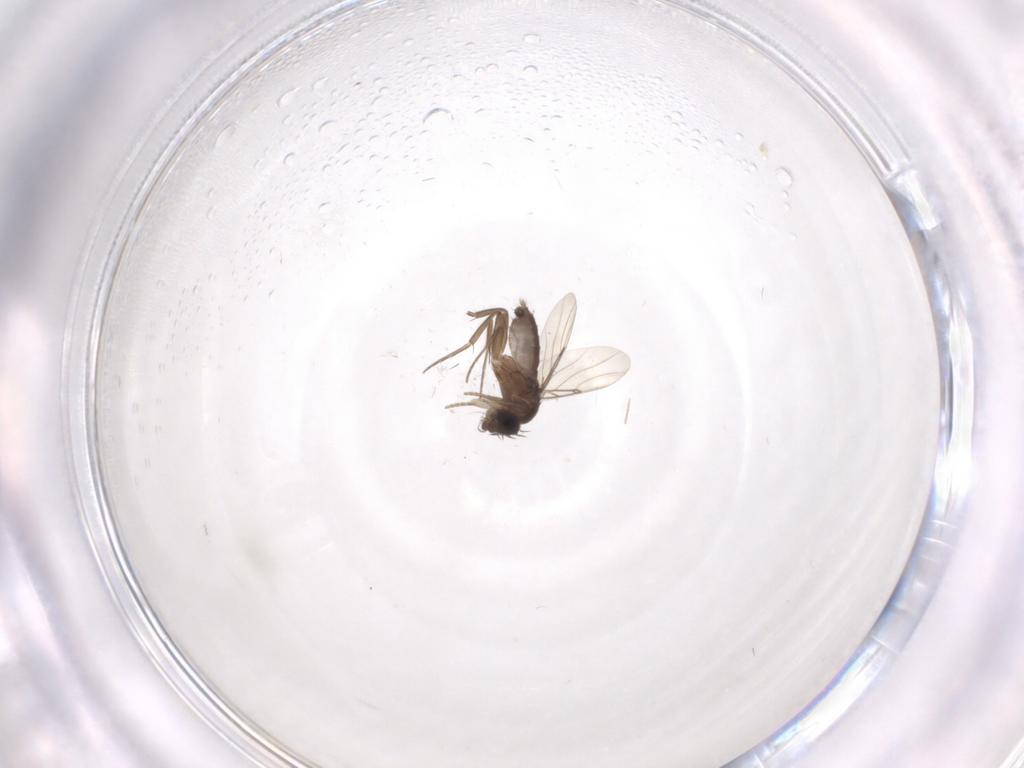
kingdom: Animalia
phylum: Arthropoda
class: Insecta
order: Diptera
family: Phoridae
